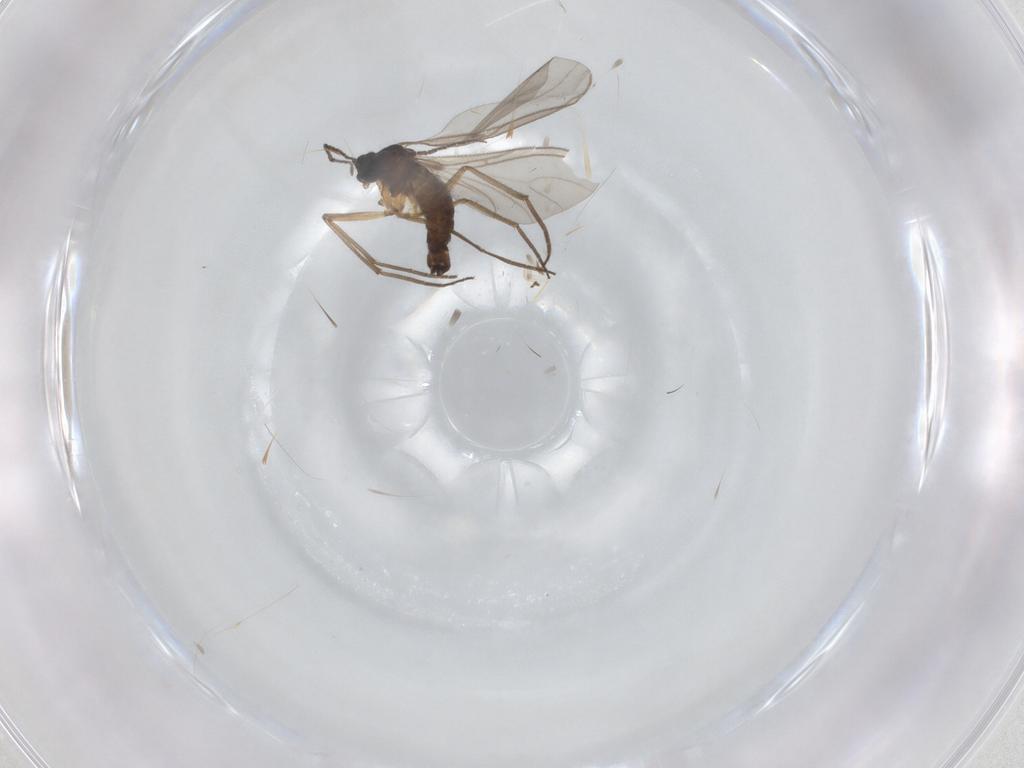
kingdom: Animalia
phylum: Arthropoda
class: Insecta
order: Diptera
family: Sciaridae
